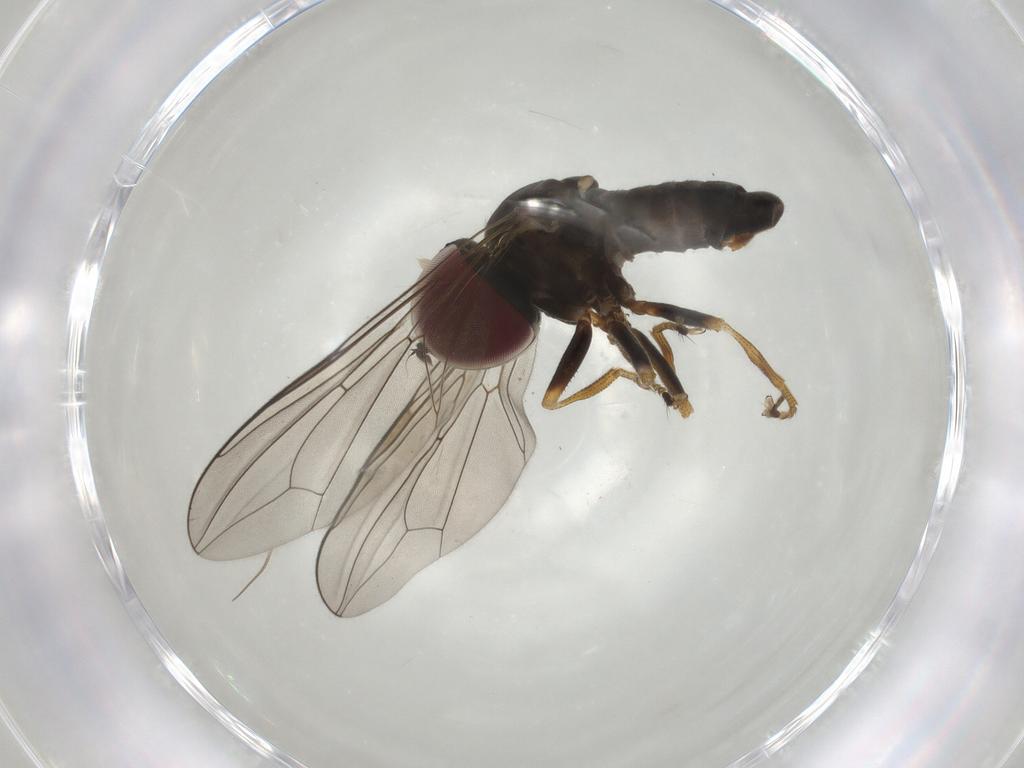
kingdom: Animalia
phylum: Arthropoda
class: Insecta
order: Diptera
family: Pipunculidae
